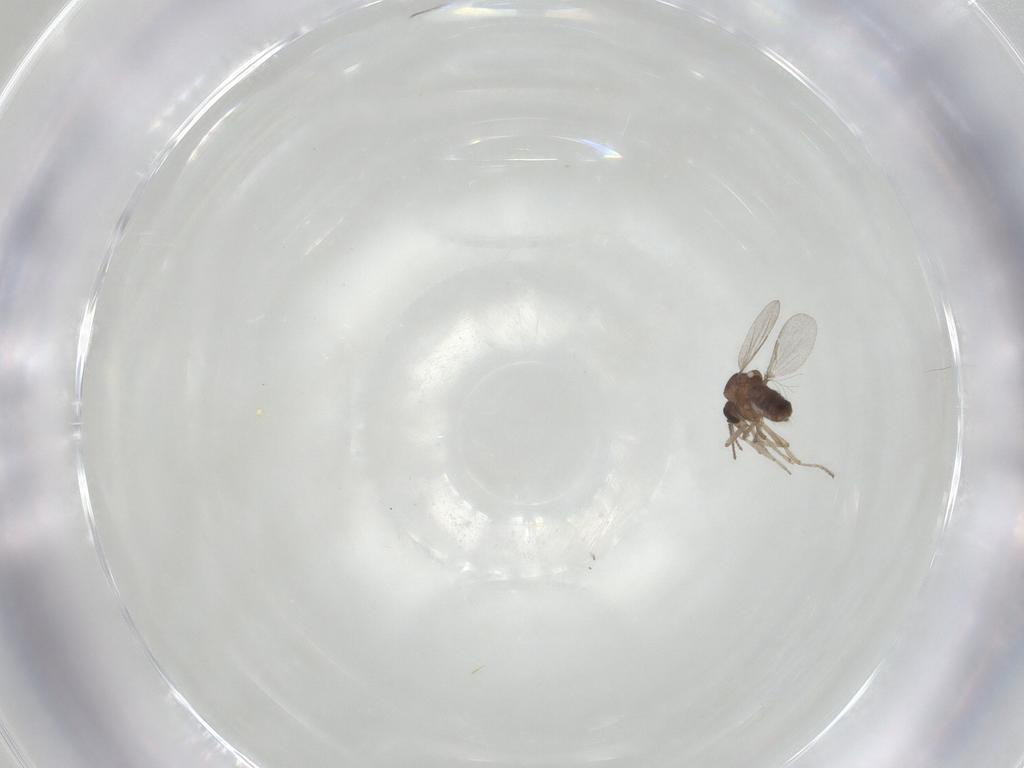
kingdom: Animalia
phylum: Arthropoda
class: Insecta
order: Diptera
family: Ceratopogonidae
